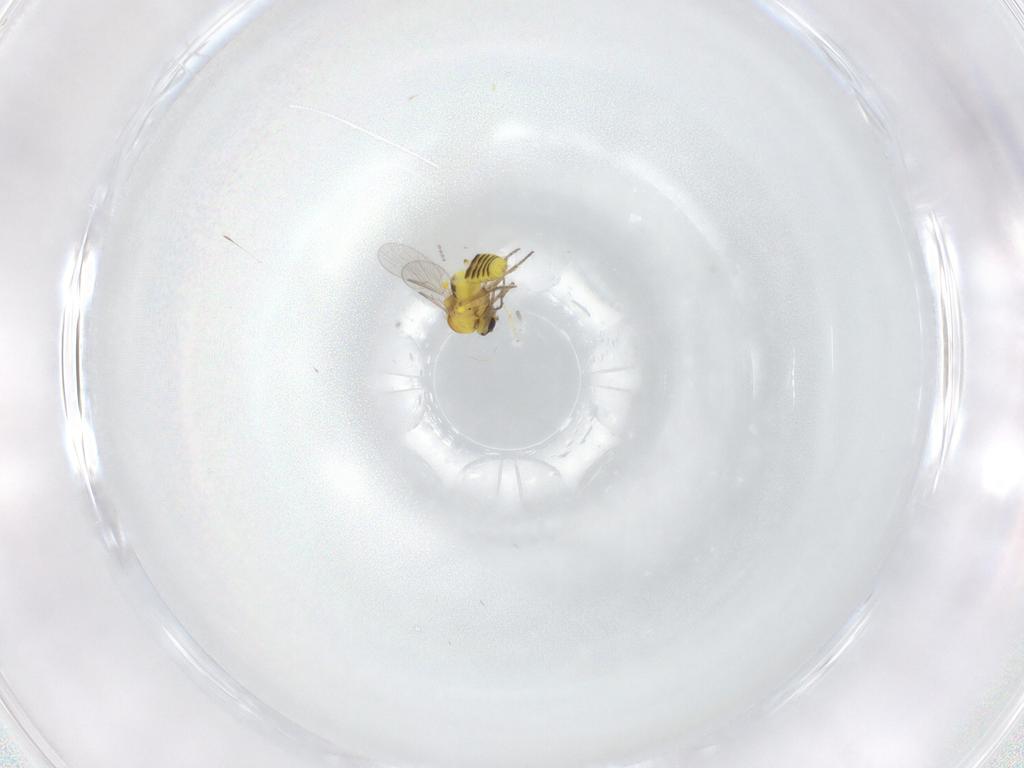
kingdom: Animalia
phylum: Arthropoda
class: Insecta
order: Diptera
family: Ceratopogonidae
